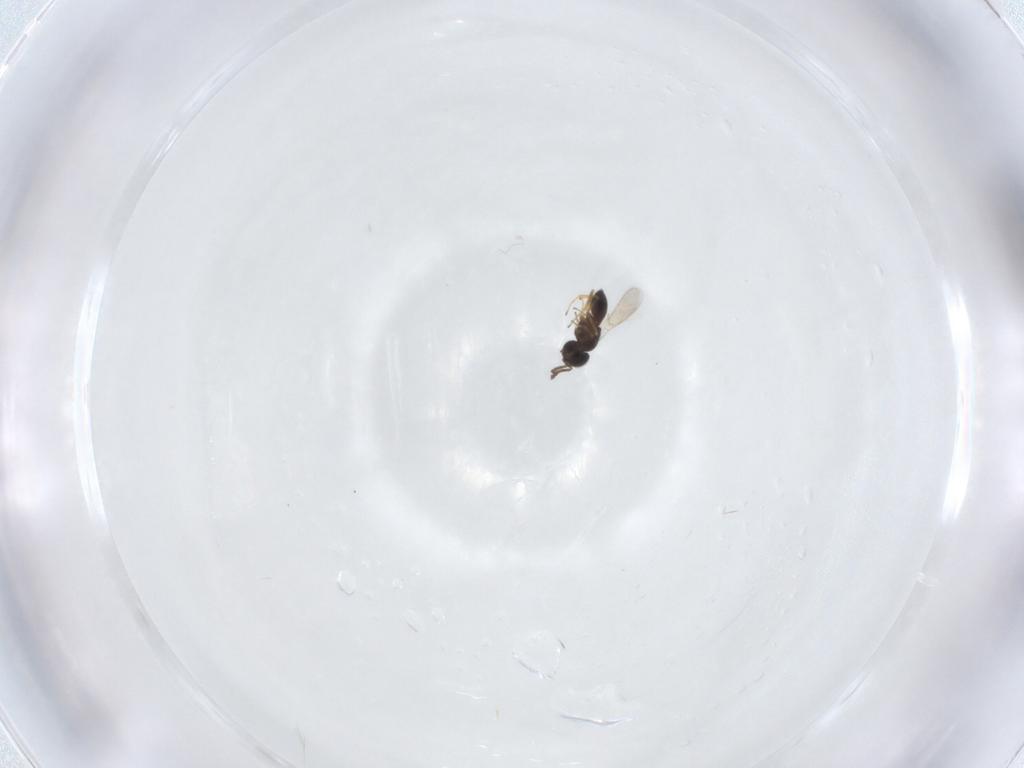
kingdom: Animalia
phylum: Arthropoda
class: Insecta
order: Hymenoptera
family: Scelionidae
